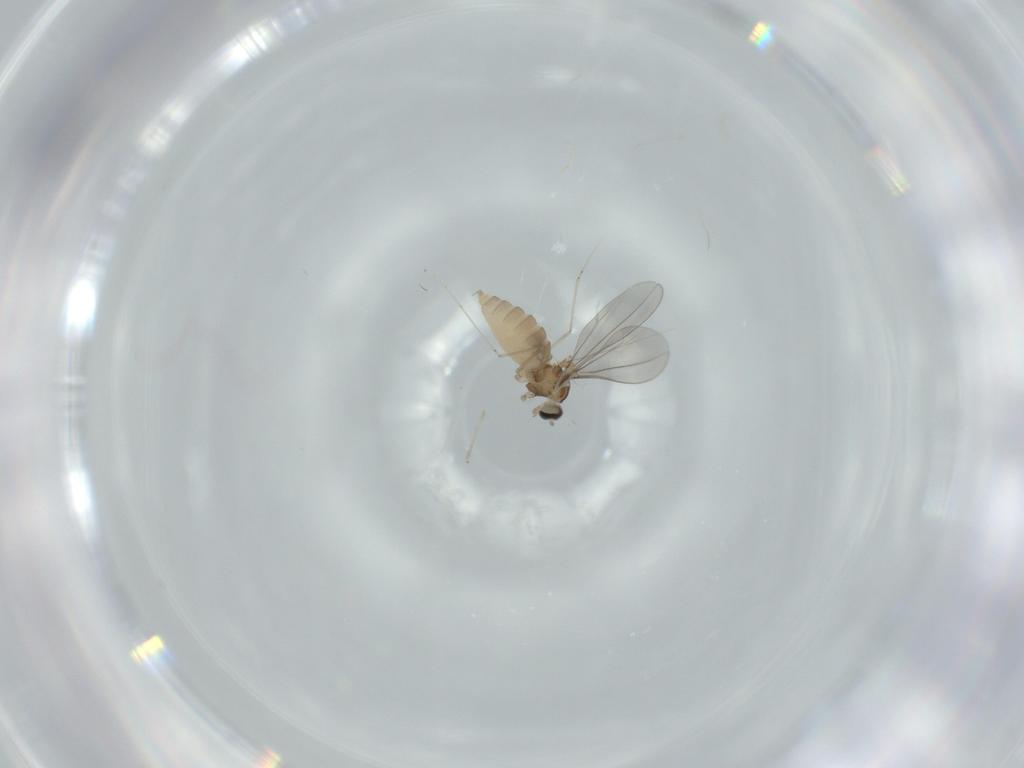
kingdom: Animalia
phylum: Arthropoda
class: Insecta
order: Diptera
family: Cecidomyiidae
